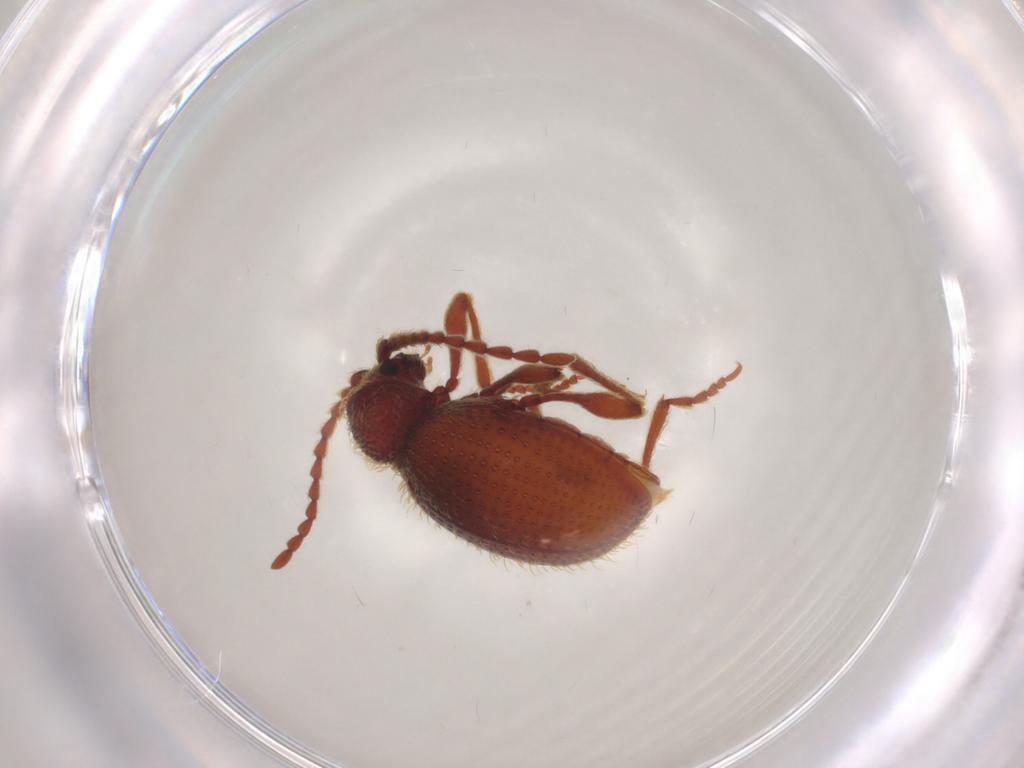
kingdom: Animalia
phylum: Arthropoda
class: Insecta
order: Coleoptera
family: Ptinidae
